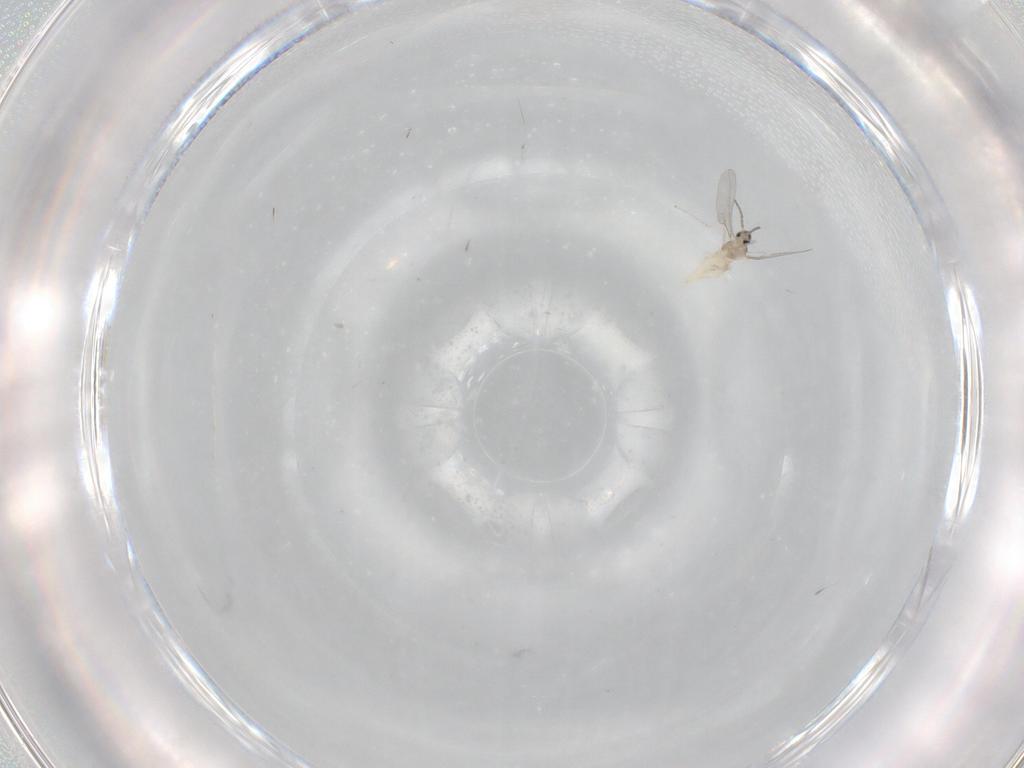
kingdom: Animalia
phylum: Arthropoda
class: Insecta
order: Diptera
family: Cecidomyiidae
